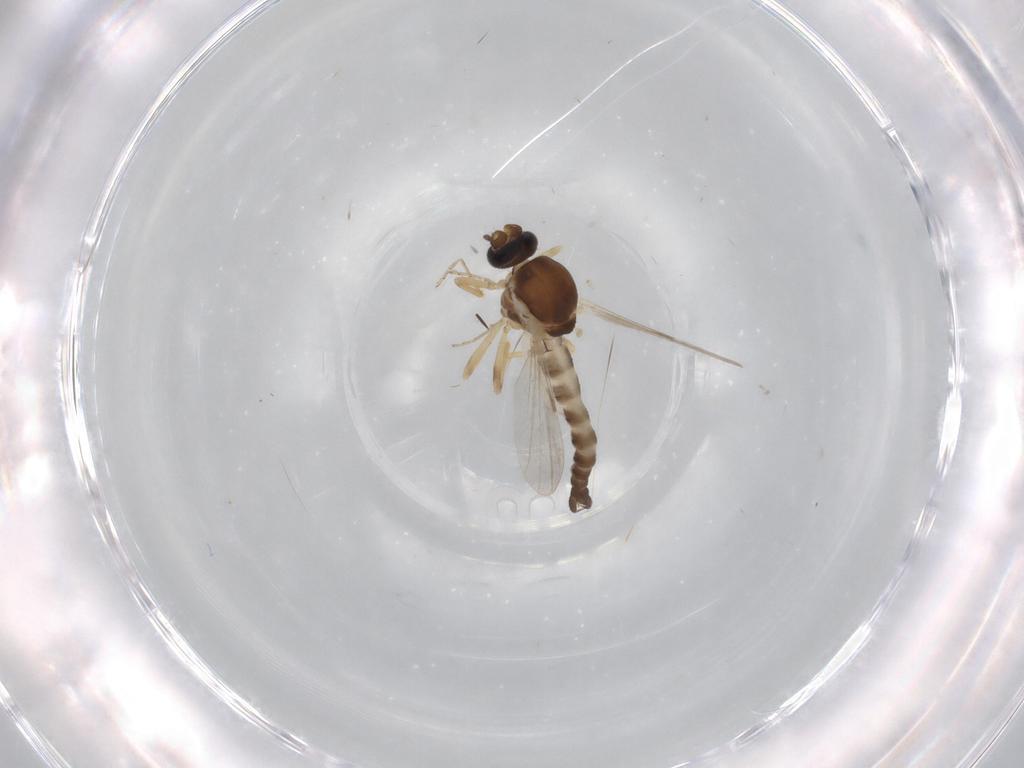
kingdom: Animalia
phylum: Arthropoda
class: Insecta
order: Diptera
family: Ceratopogonidae
